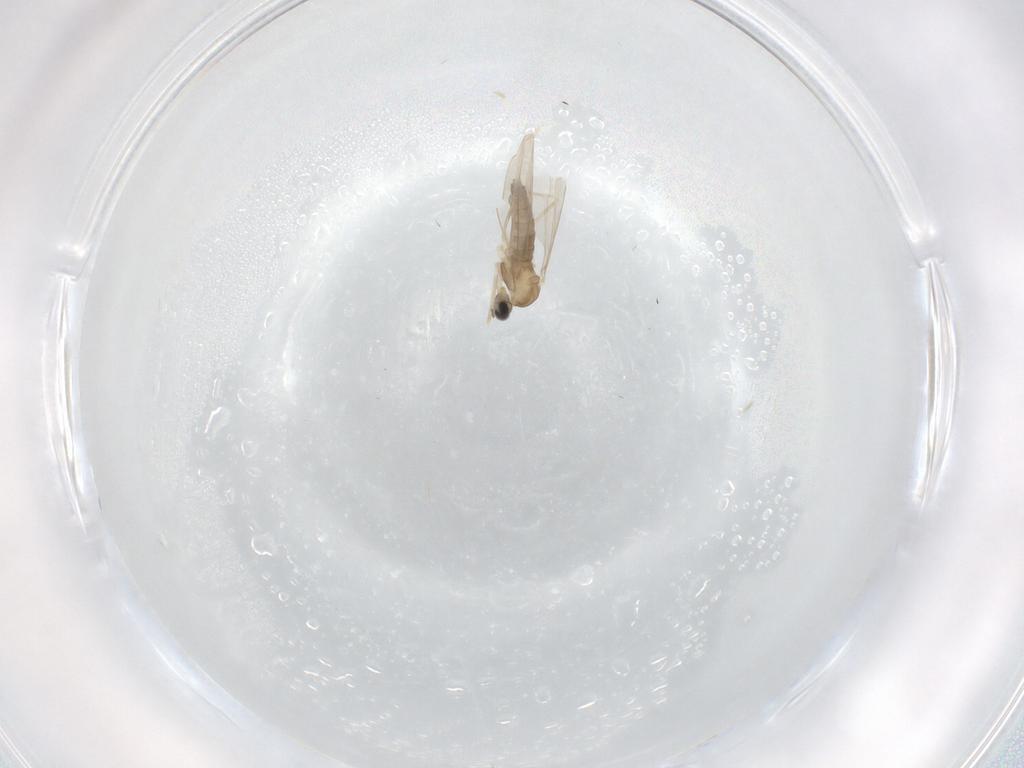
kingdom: Animalia
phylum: Arthropoda
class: Insecta
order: Diptera
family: Cecidomyiidae
